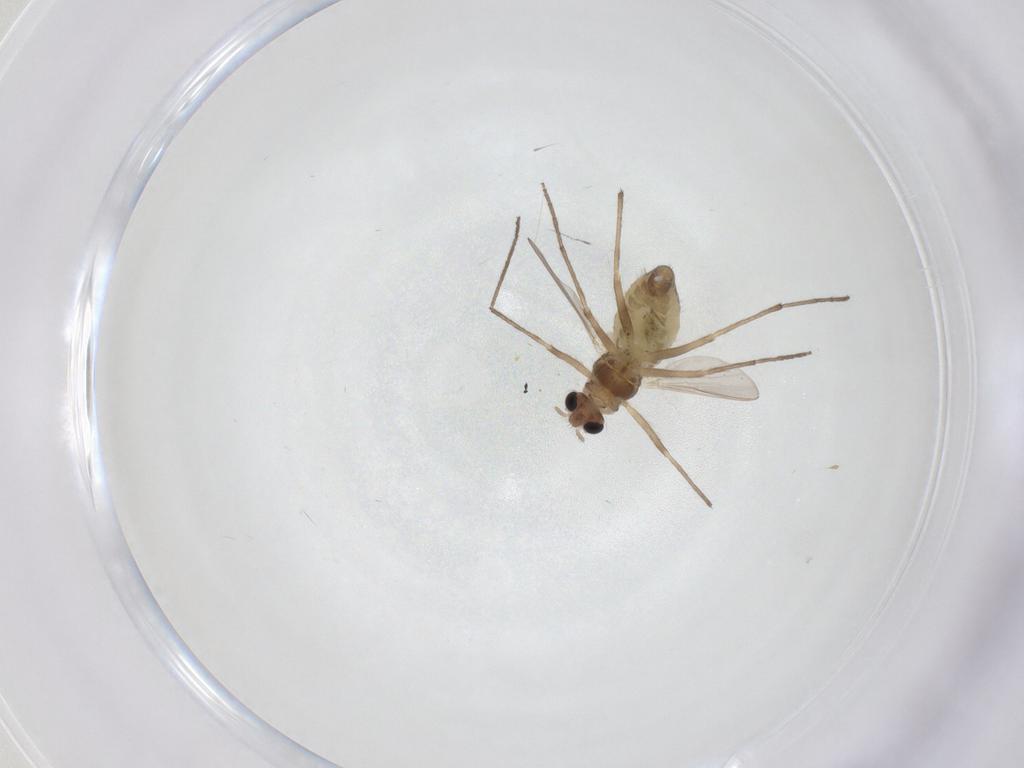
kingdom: Animalia
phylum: Arthropoda
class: Insecta
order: Diptera
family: Chironomidae
